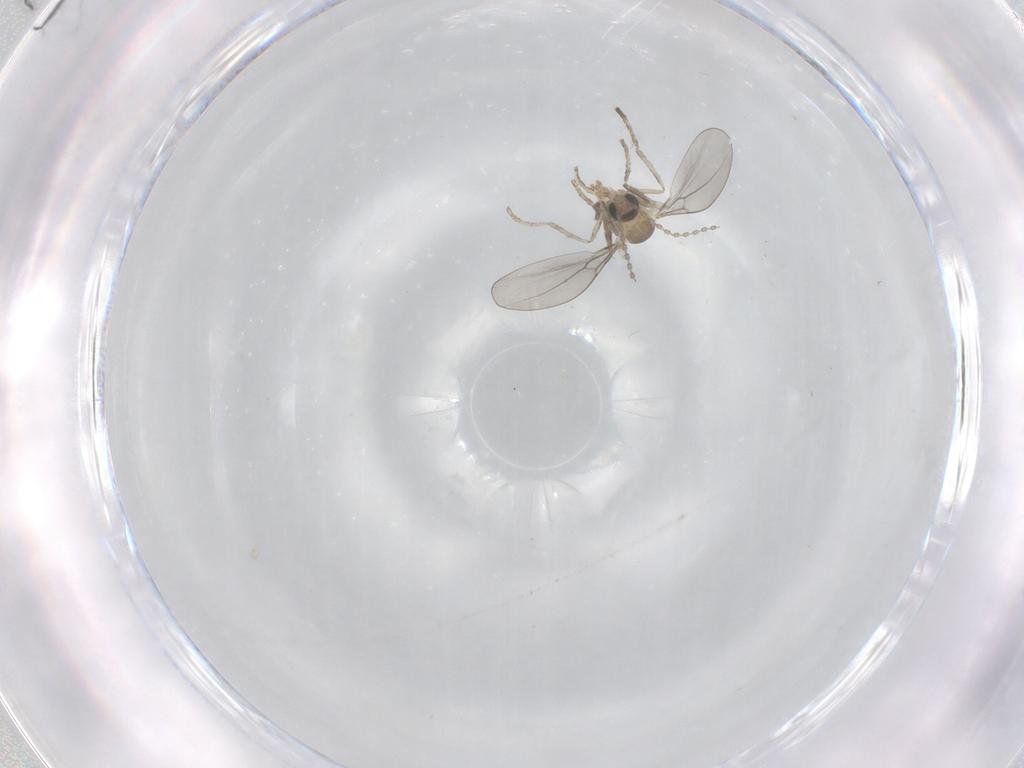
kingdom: Animalia
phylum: Arthropoda
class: Insecta
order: Diptera
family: Cecidomyiidae
